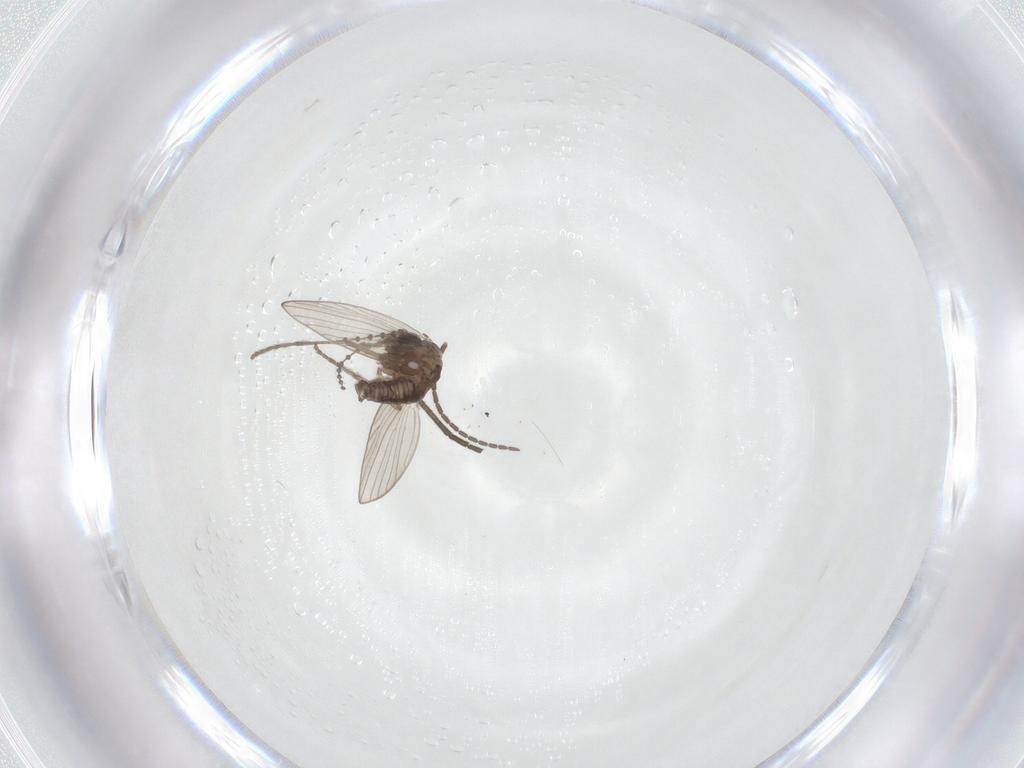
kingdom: Animalia
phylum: Arthropoda
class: Insecta
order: Diptera
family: Sciaridae
